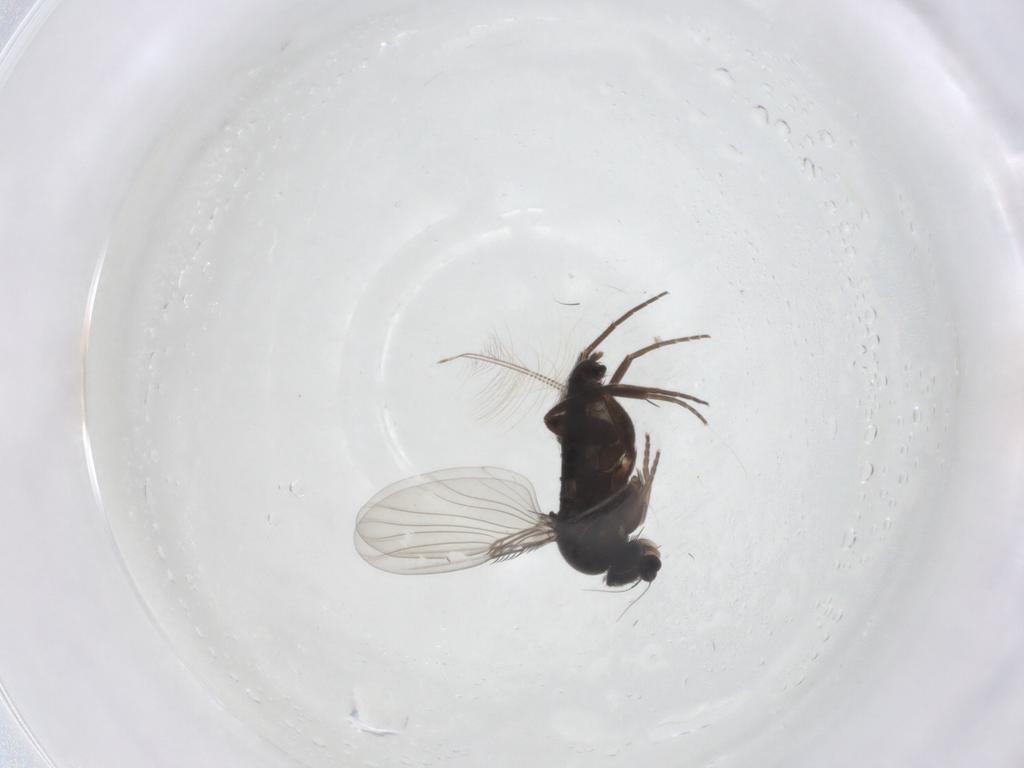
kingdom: Animalia
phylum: Arthropoda
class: Insecta
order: Diptera
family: Chironomidae
